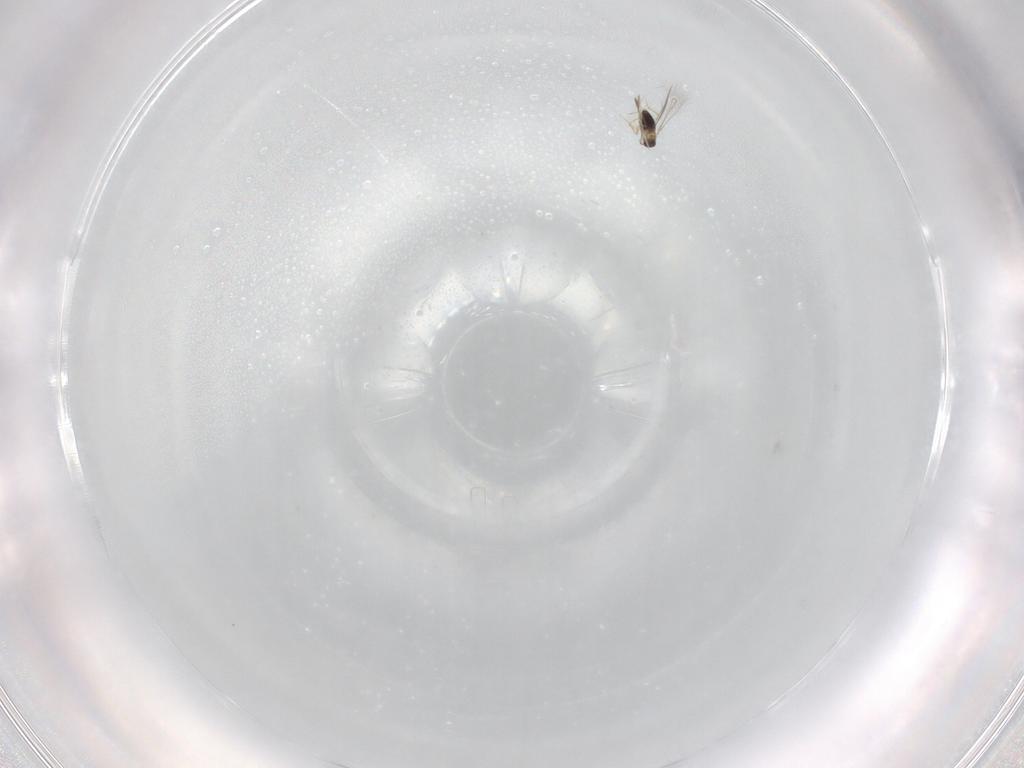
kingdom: Animalia
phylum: Arthropoda
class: Insecta
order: Hymenoptera
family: Mymaridae
